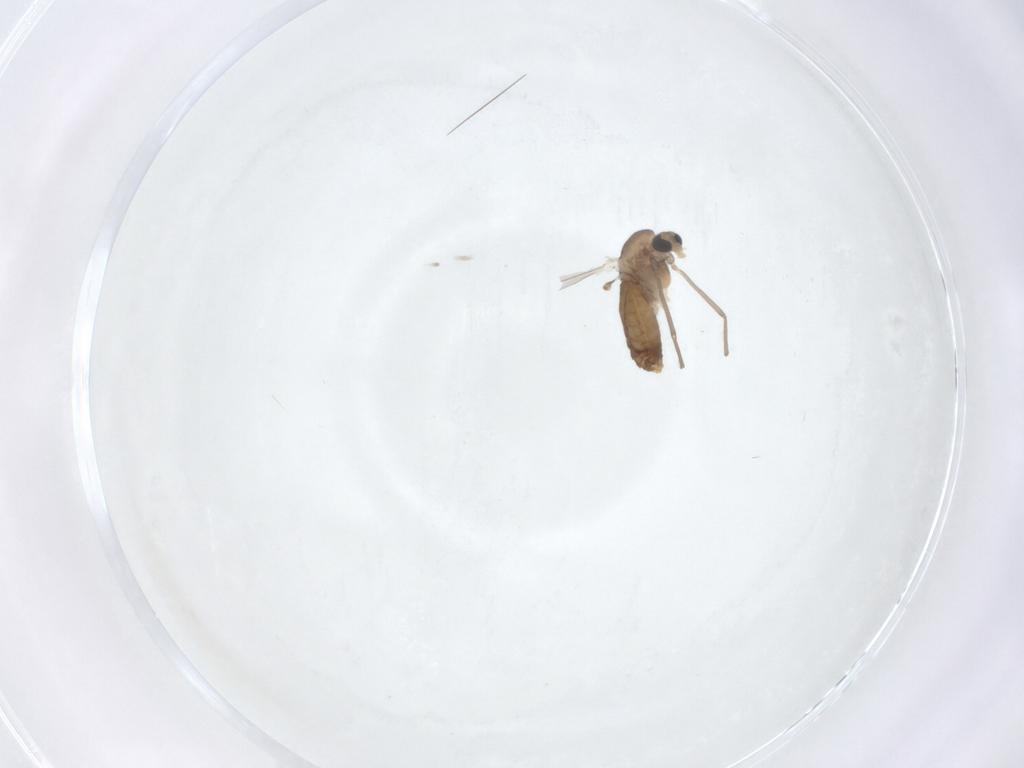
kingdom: Animalia
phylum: Arthropoda
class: Insecta
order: Diptera
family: Chironomidae
